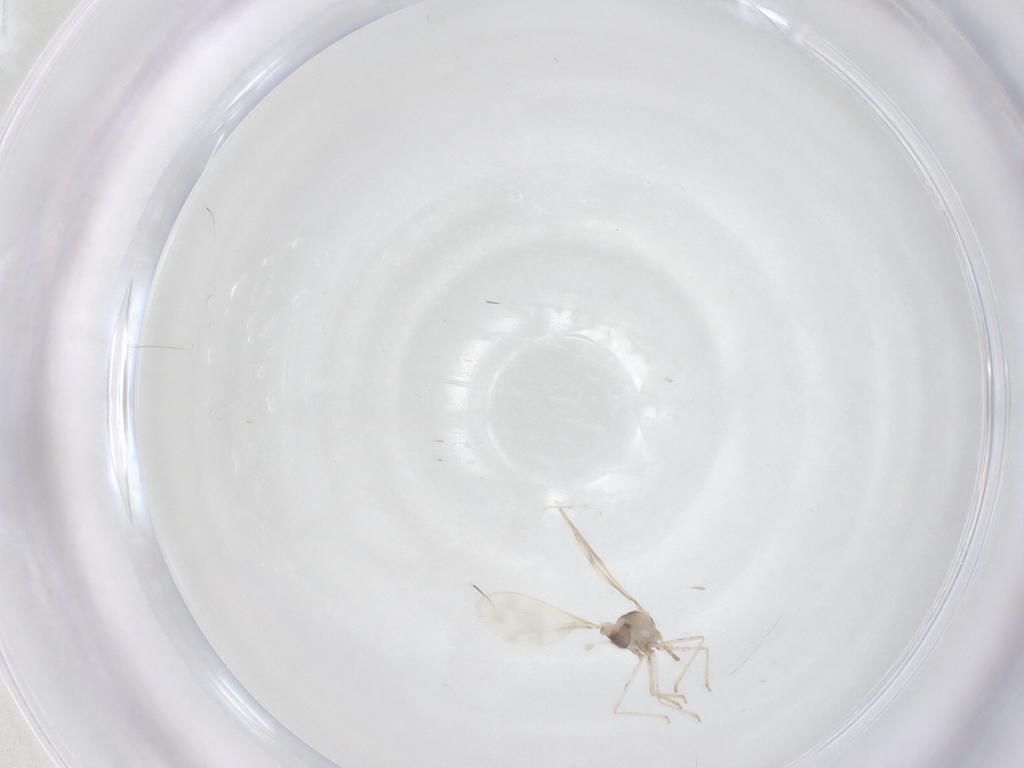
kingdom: Animalia
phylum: Arthropoda
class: Insecta
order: Diptera
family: Cecidomyiidae
